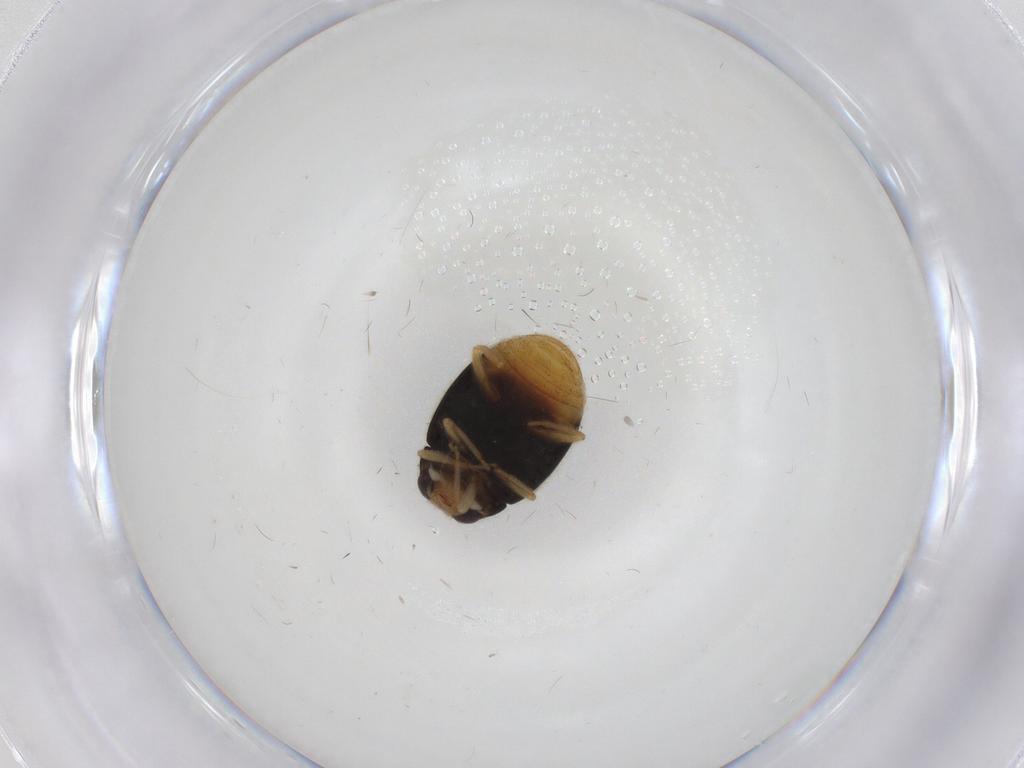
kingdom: Animalia
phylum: Arthropoda
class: Insecta
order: Coleoptera
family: Coccinellidae
